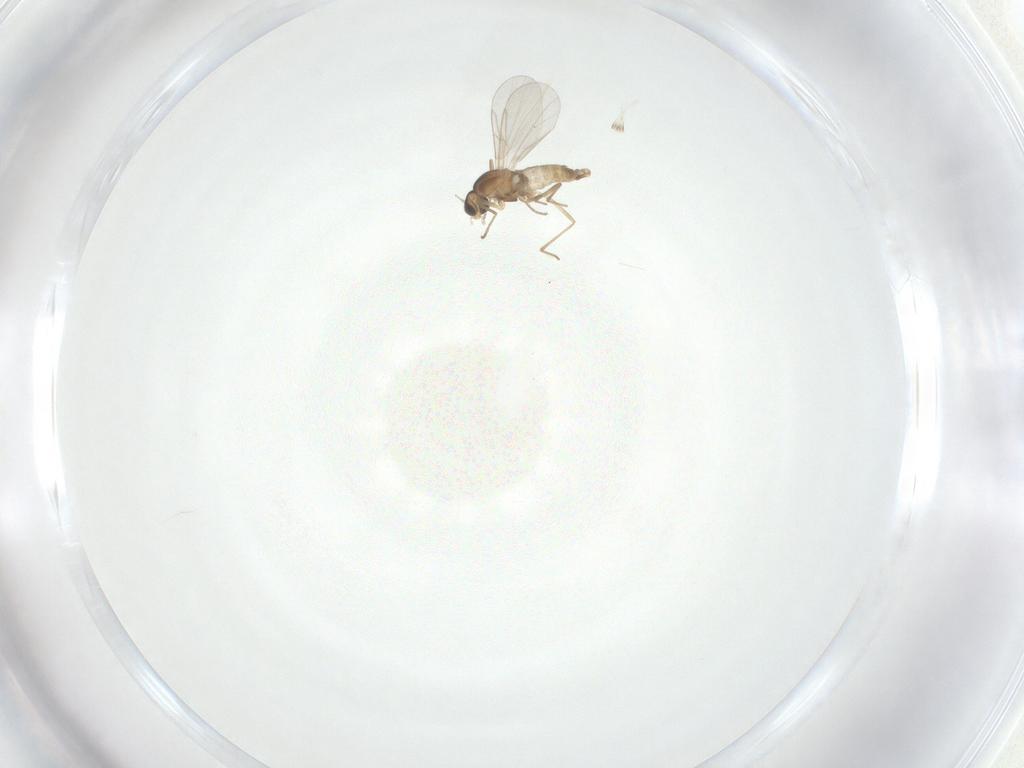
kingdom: Animalia
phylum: Arthropoda
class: Insecta
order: Diptera
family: Cecidomyiidae
